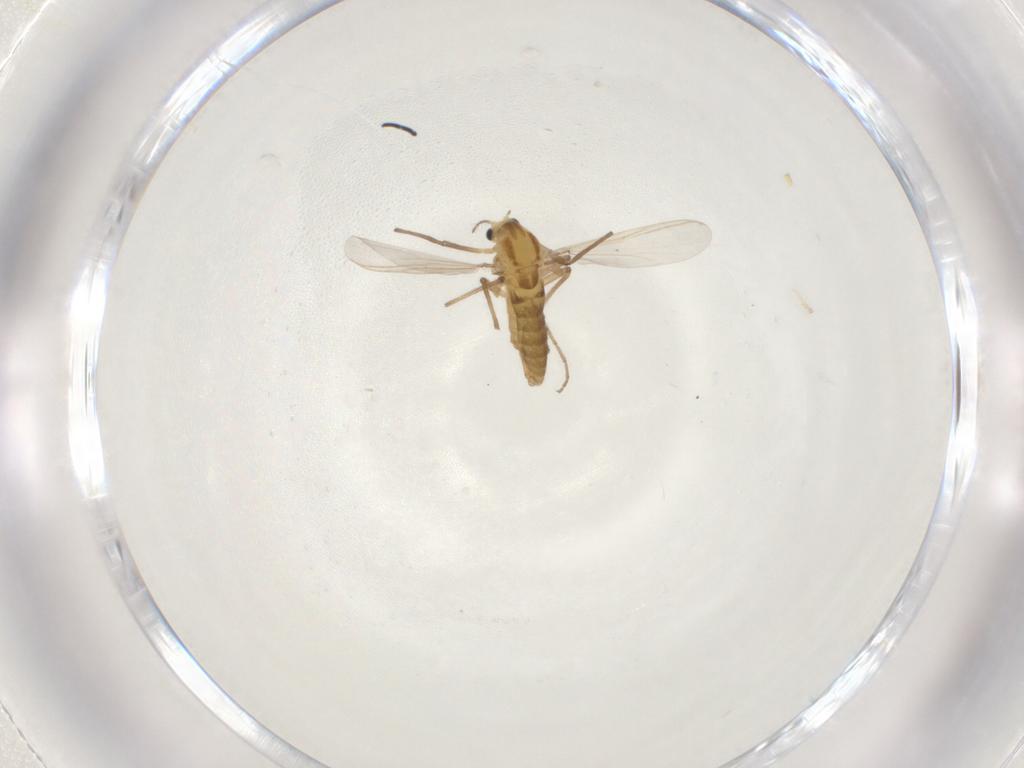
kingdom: Animalia
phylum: Arthropoda
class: Insecta
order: Diptera
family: Chironomidae
